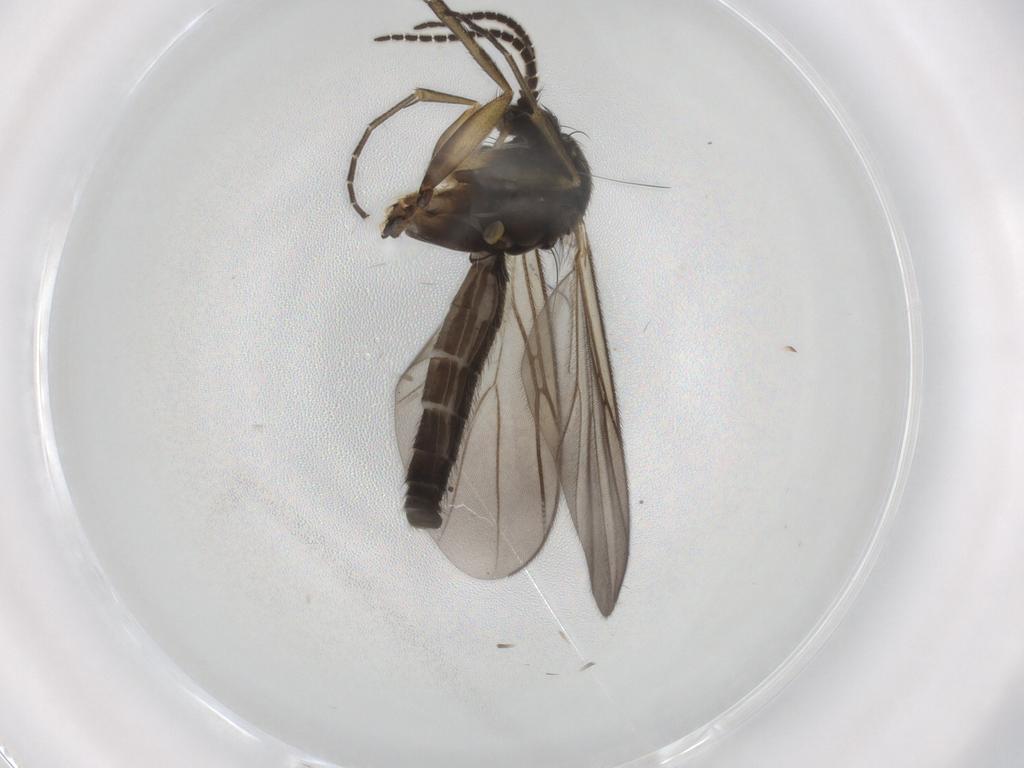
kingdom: Animalia
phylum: Arthropoda
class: Insecta
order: Diptera
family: Mycetophilidae
